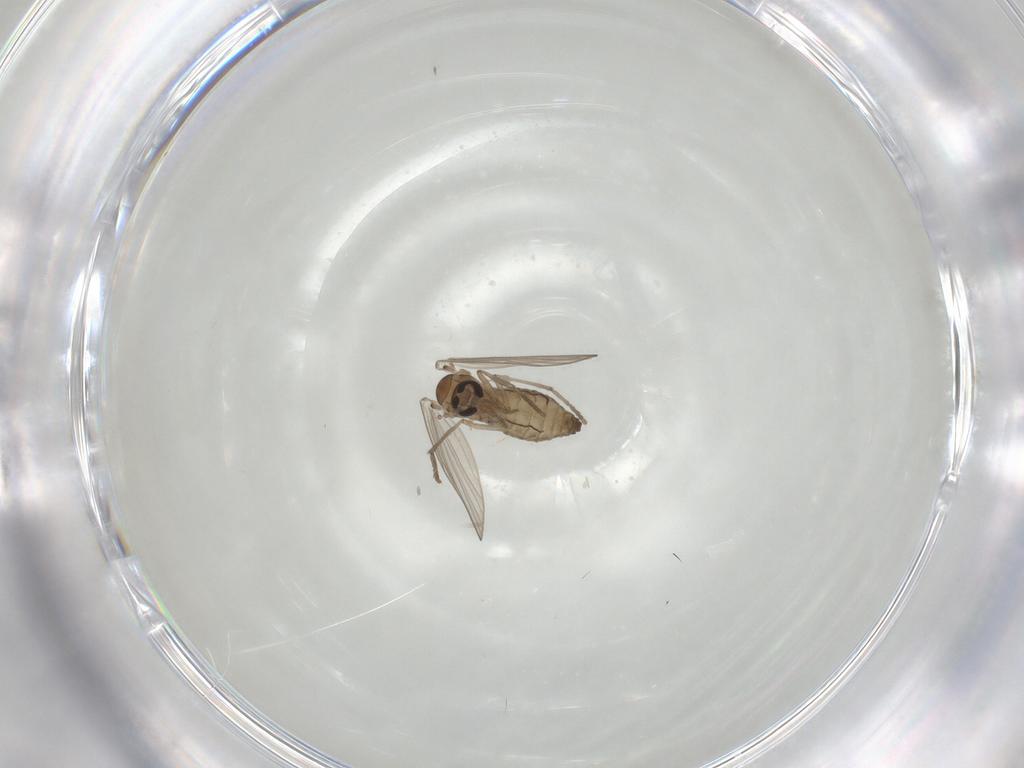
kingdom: Animalia
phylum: Arthropoda
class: Insecta
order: Diptera
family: Psychodidae
